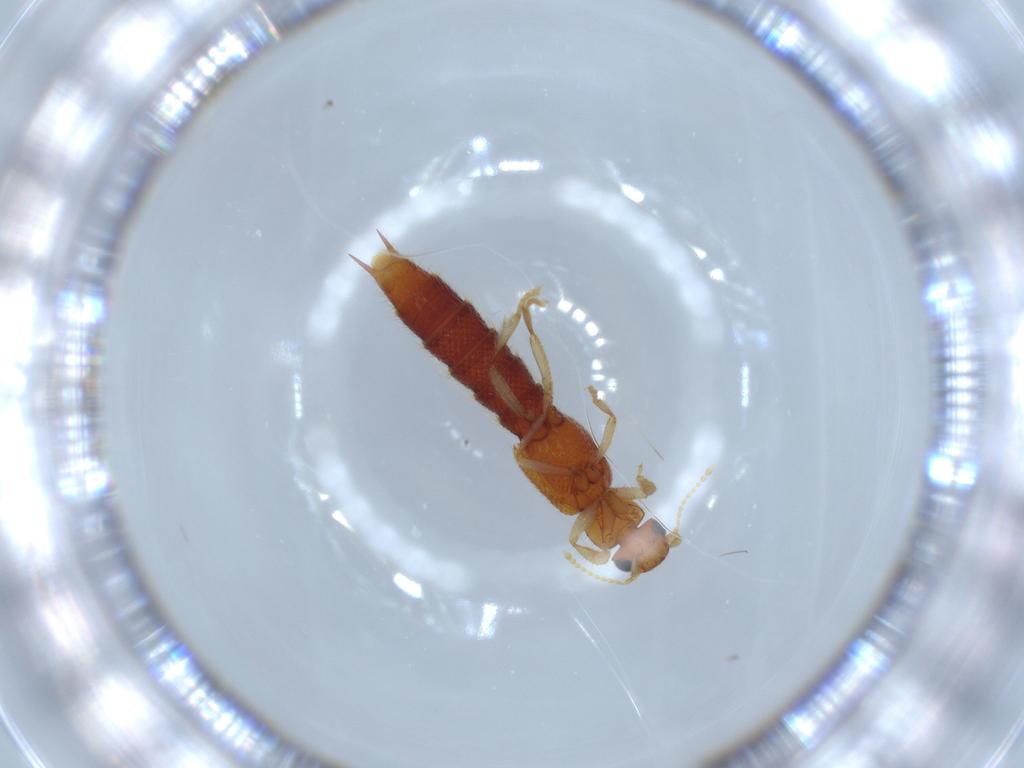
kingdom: Animalia
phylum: Arthropoda
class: Insecta
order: Coleoptera
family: Staphylinidae
